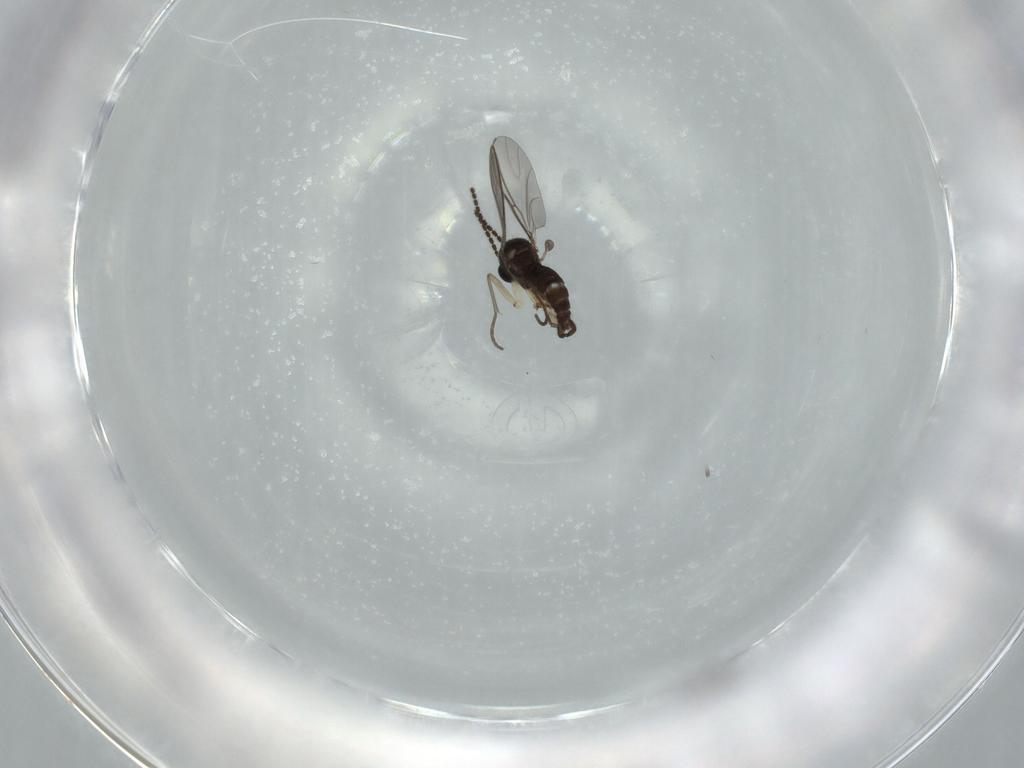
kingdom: Animalia
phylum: Arthropoda
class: Insecta
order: Diptera
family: Sciaridae
